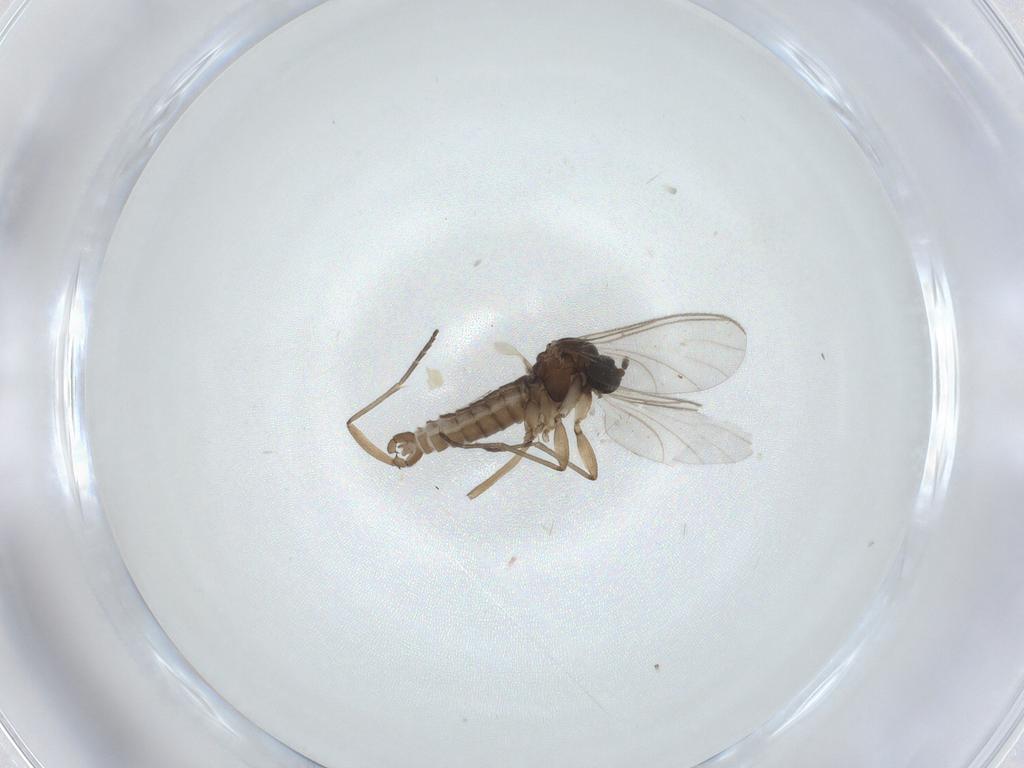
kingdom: Animalia
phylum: Arthropoda
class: Insecta
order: Diptera
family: Sciaridae
